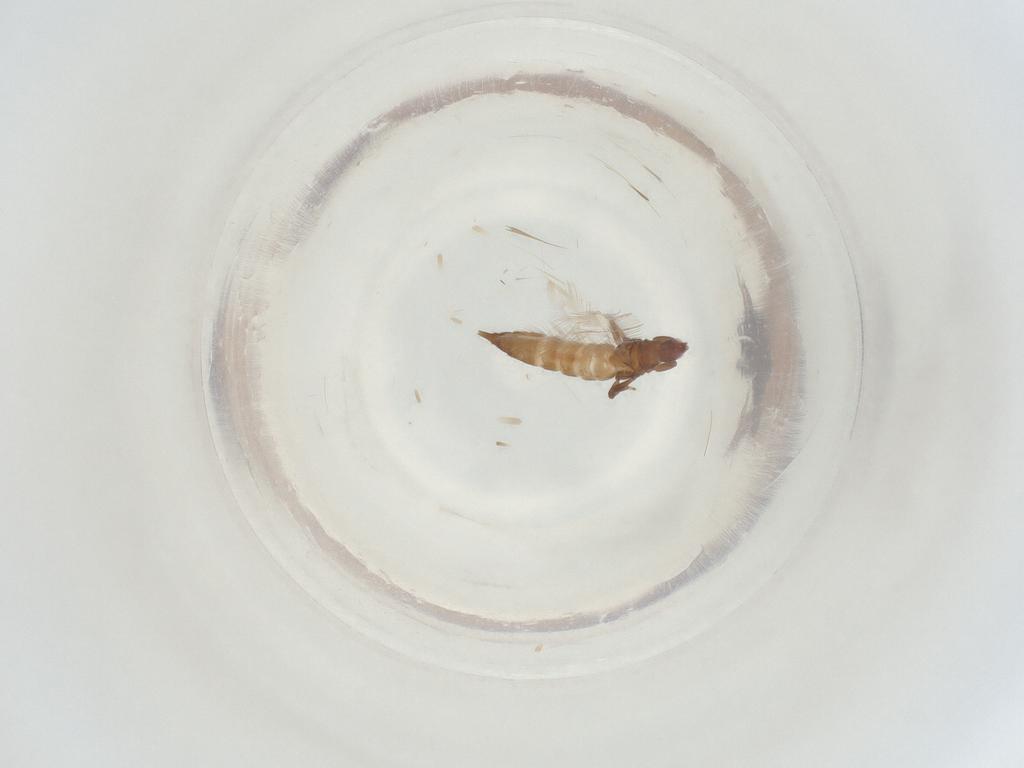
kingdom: Animalia
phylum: Arthropoda
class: Insecta
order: Thysanoptera
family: Phlaeothripidae
